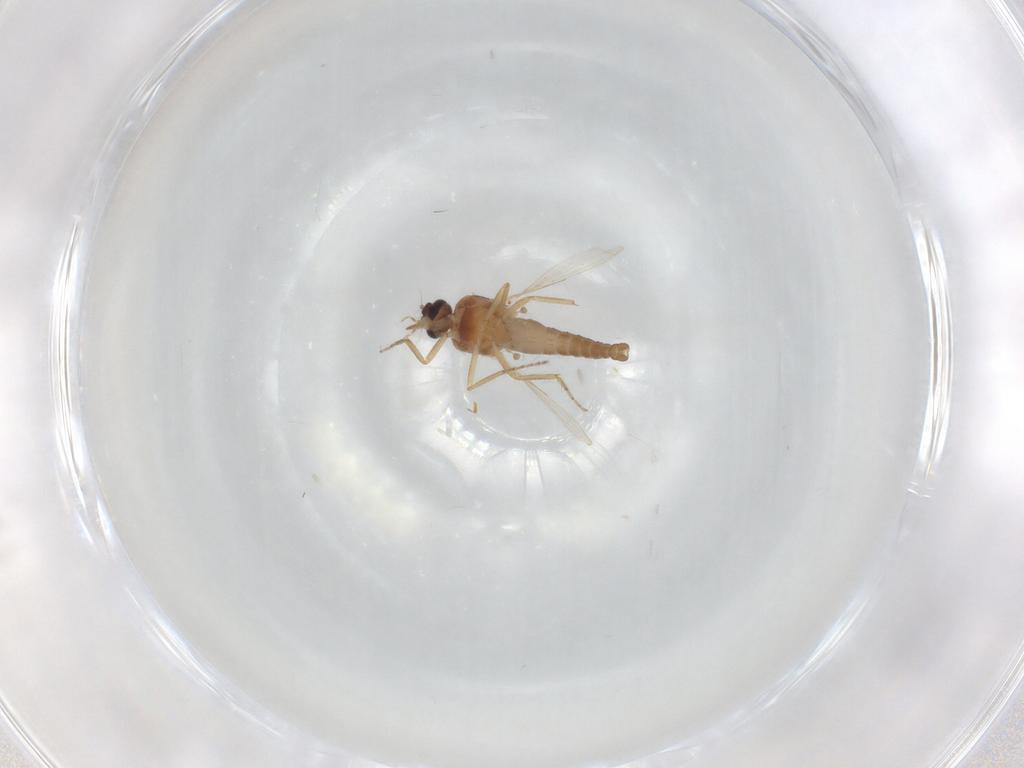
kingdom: Animalia
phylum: Arthropoda
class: Insecta
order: Diptera
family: Ceratopogonidae
